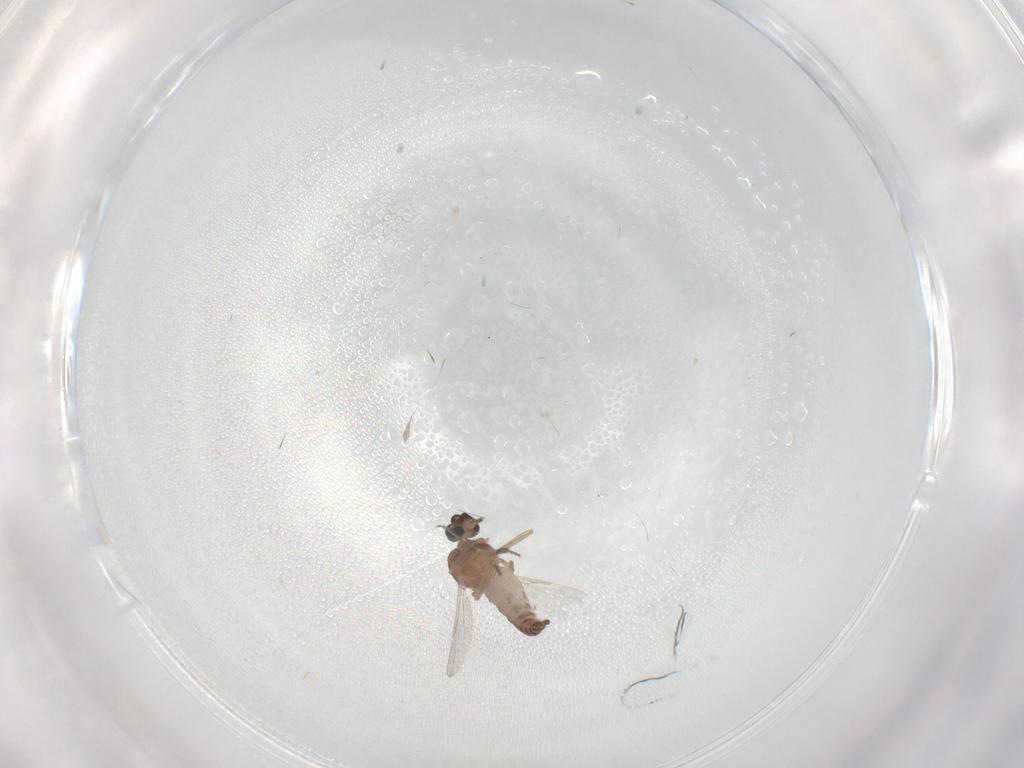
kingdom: Animalia
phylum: Arthropoda
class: Insecta
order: Diptera
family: Ceratopogonidae
